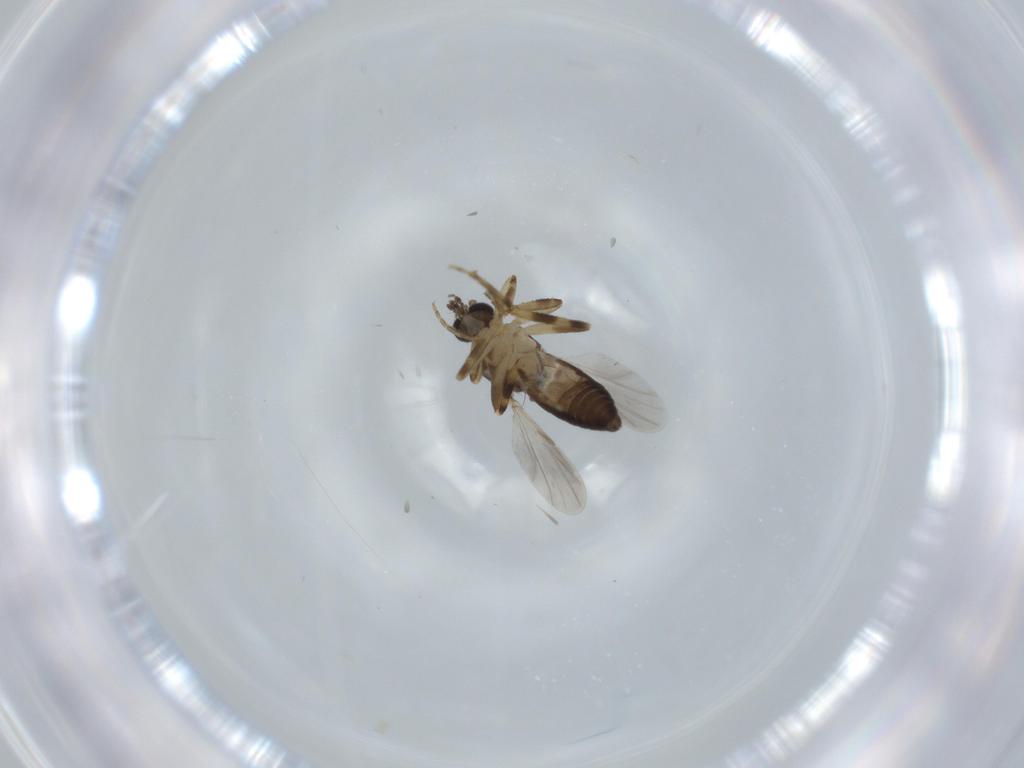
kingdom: Animalia
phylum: Arthropoda
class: Insecta
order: Diptera
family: Ceratopogonidae
